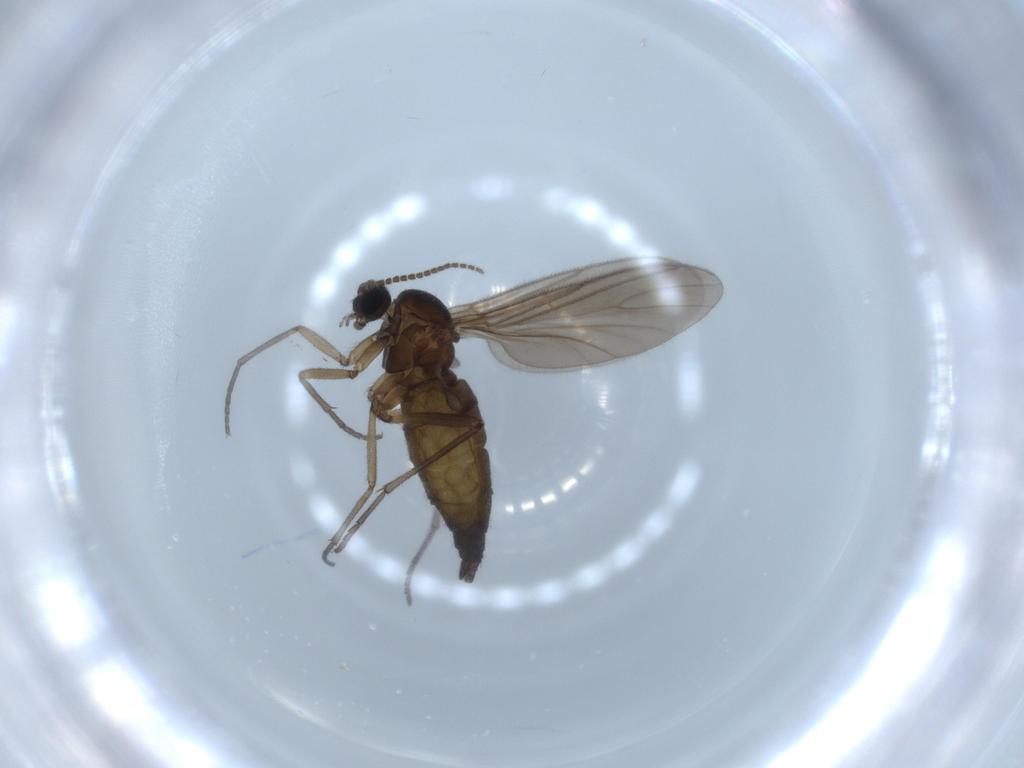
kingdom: Animalia
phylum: Arthropoda
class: Insecta
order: Diptera
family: Sciaridae
